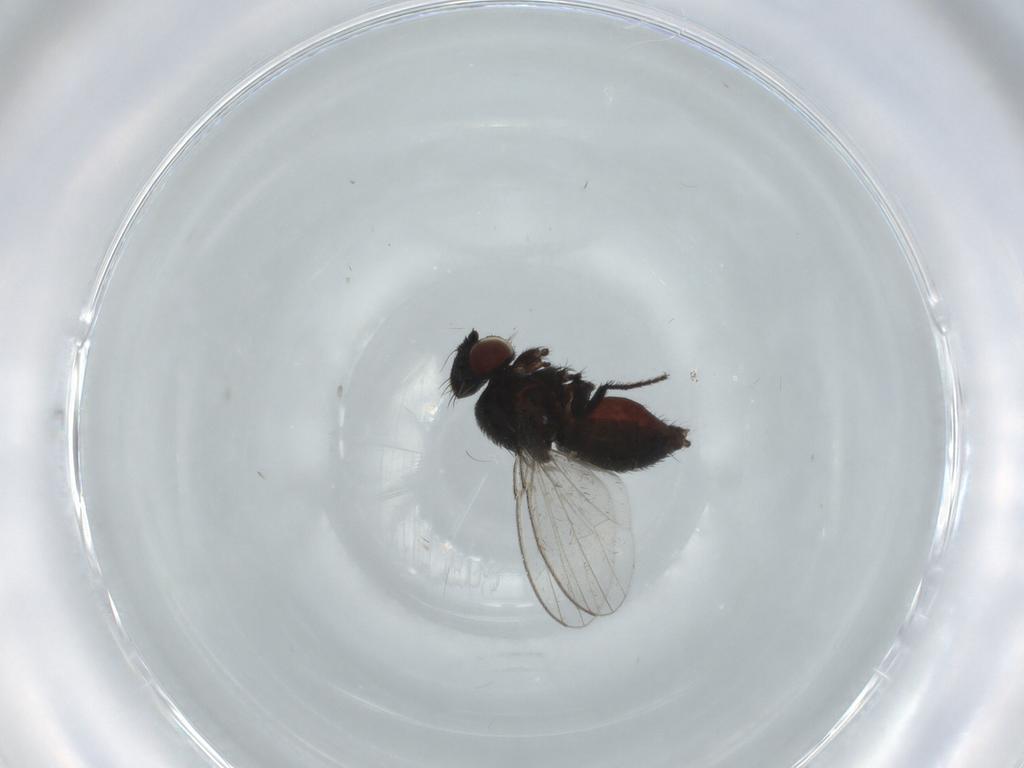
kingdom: Animalia
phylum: Arthropoda
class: Insecta
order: Diptera
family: Milichiidae
